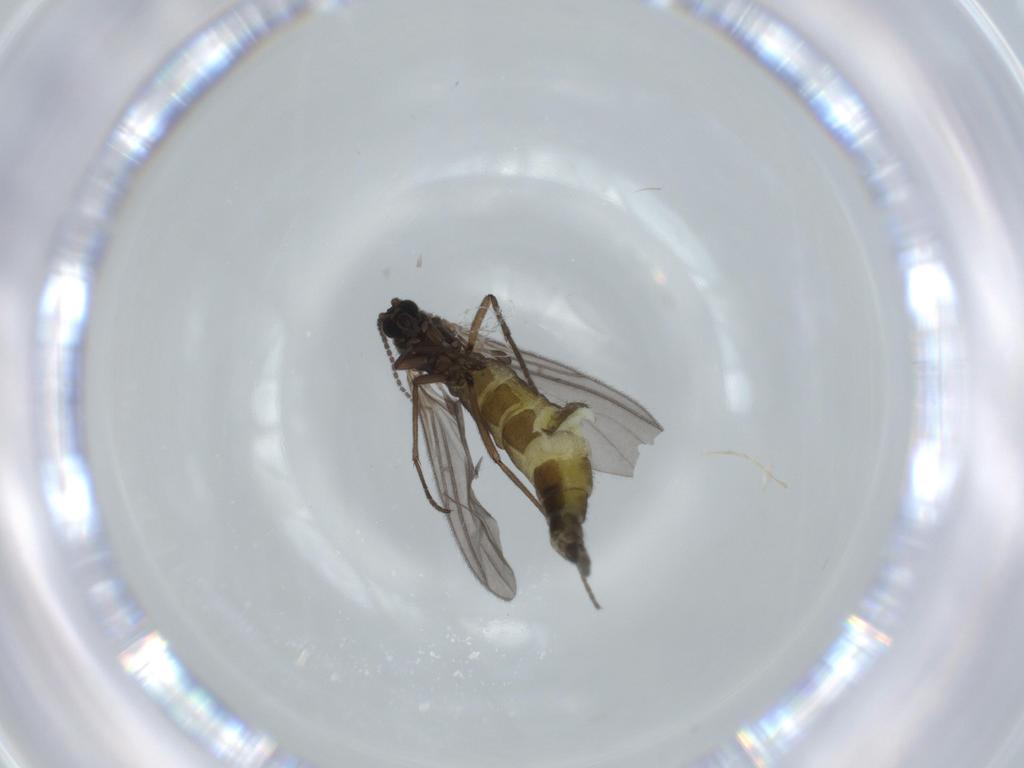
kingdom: Animalia
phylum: Arthropoda
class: Insecta
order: Diptera
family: Sciaridae
